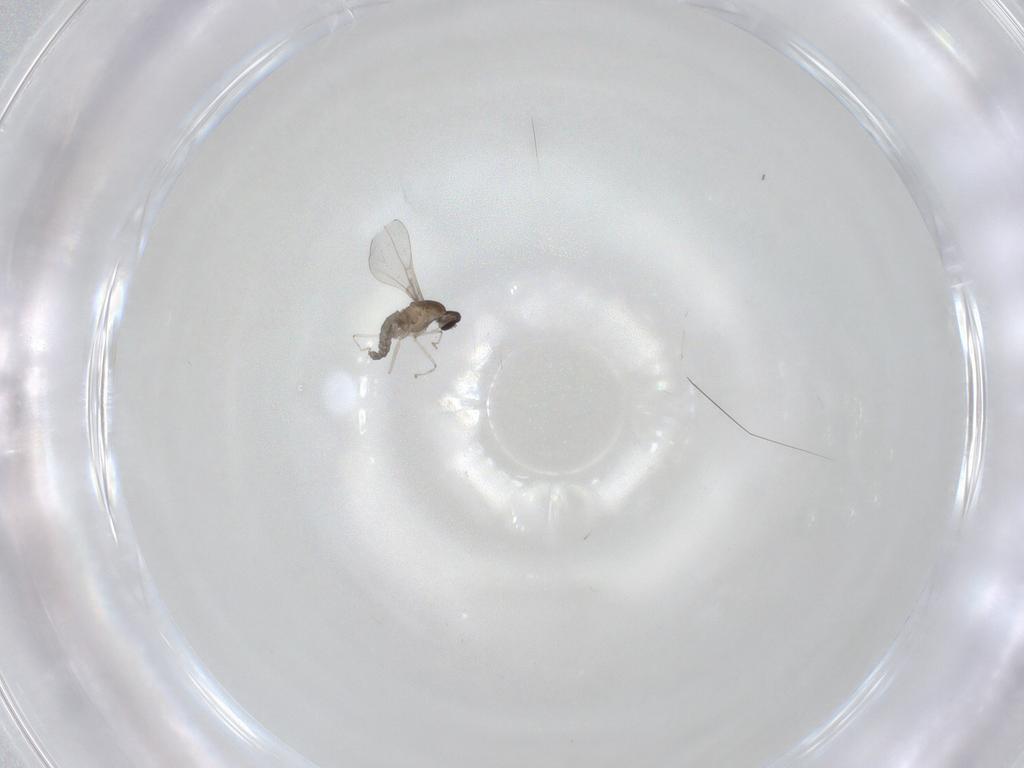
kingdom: Animalia
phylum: Arthropoda
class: Insecta
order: Diptera
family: Cecidomyiidae
